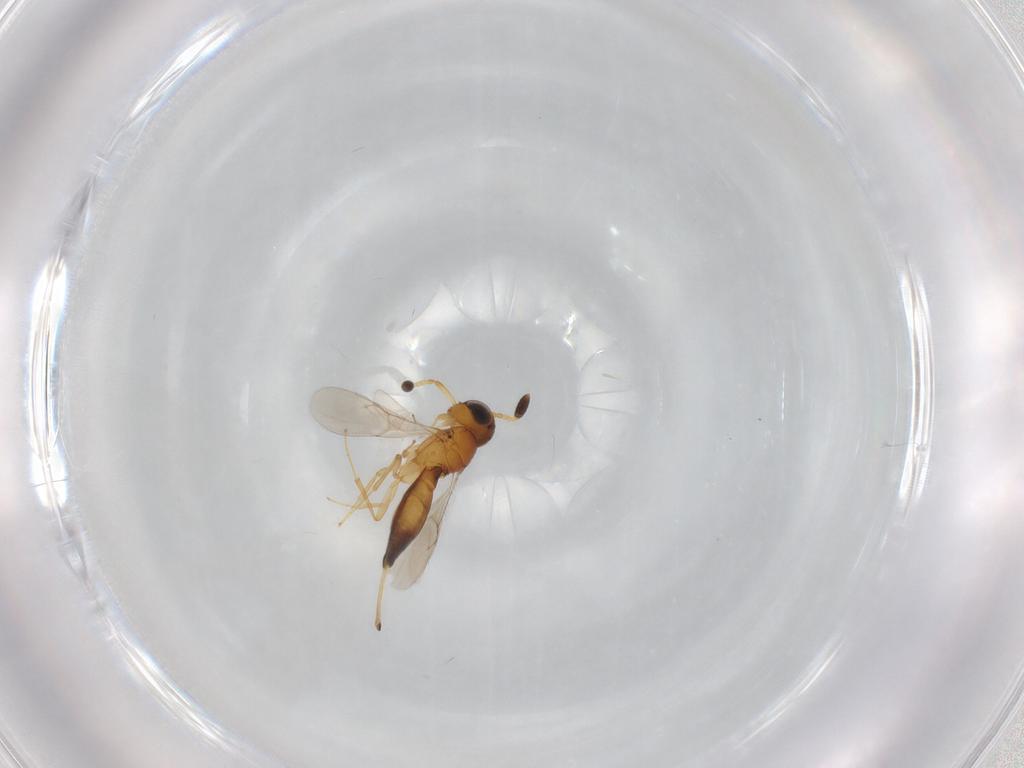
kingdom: Animalia
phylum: Arthropoda
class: Insecta
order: Hymenoptera
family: Scelionidae
